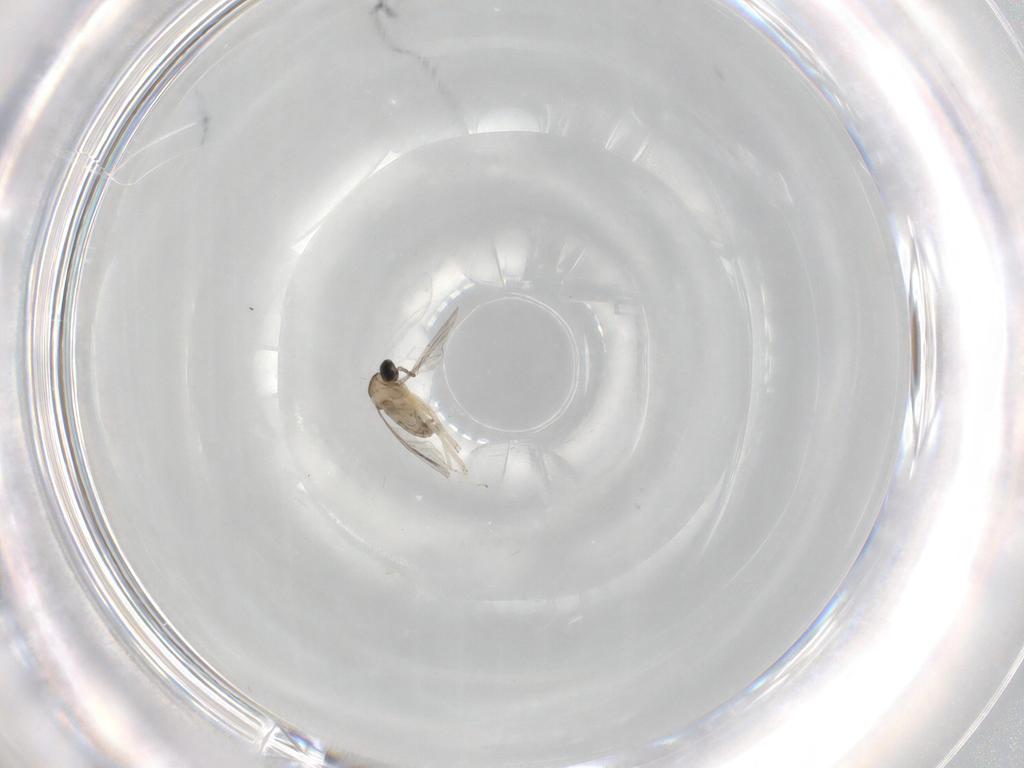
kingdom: Animalia
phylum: Arthropoda
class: Insecta
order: Diptera
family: Cecidomyiidae
